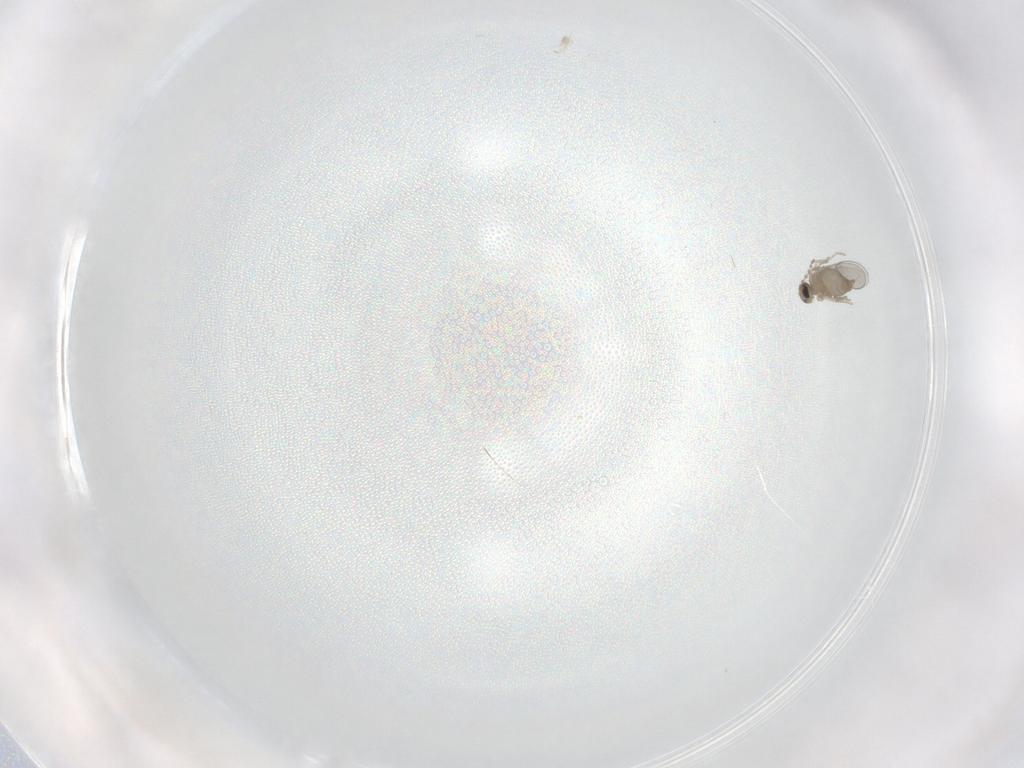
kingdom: Animalia
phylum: Arthropoda
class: Insecta
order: Diptera
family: Cecidomyiidae
